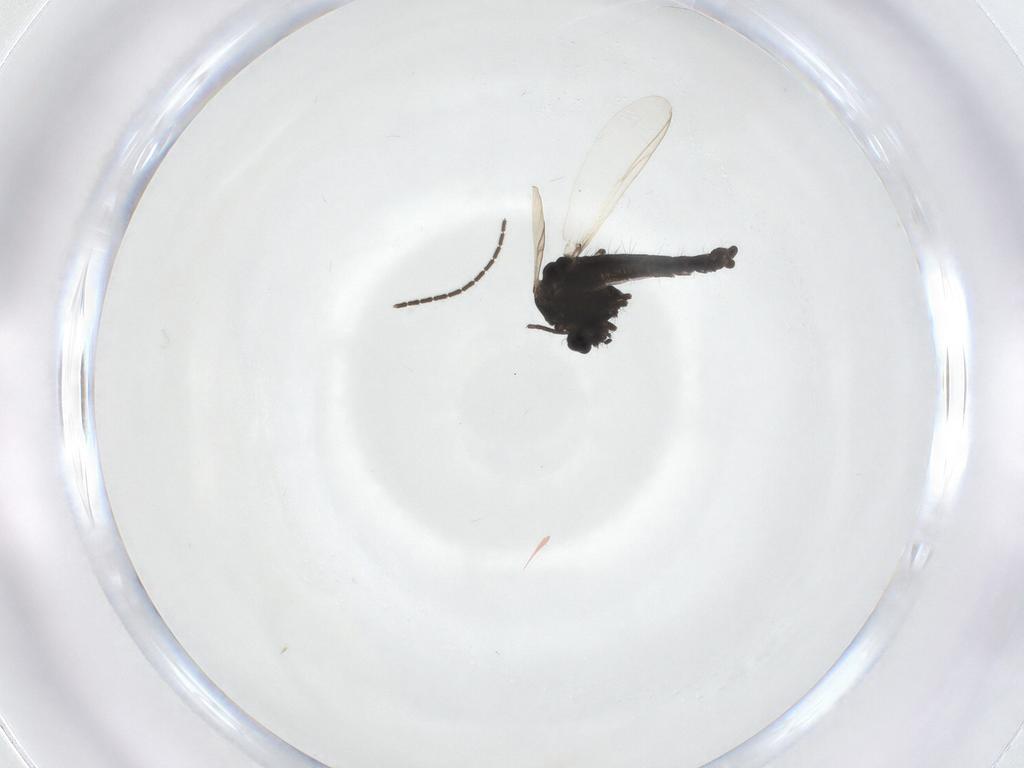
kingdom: Animalia
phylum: Arthropoda
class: Insecta
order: Diptera
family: Chironomidae
